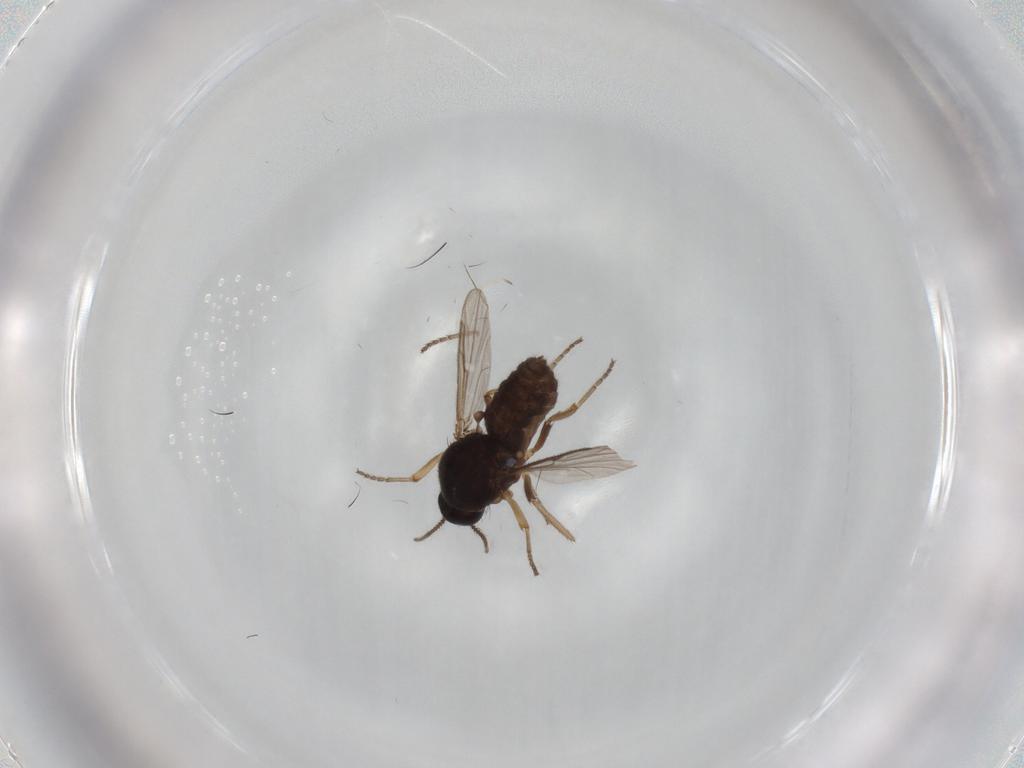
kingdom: Animalia
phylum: Arthropoda
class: Insecta
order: Diptera
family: Ceratopogonidae
